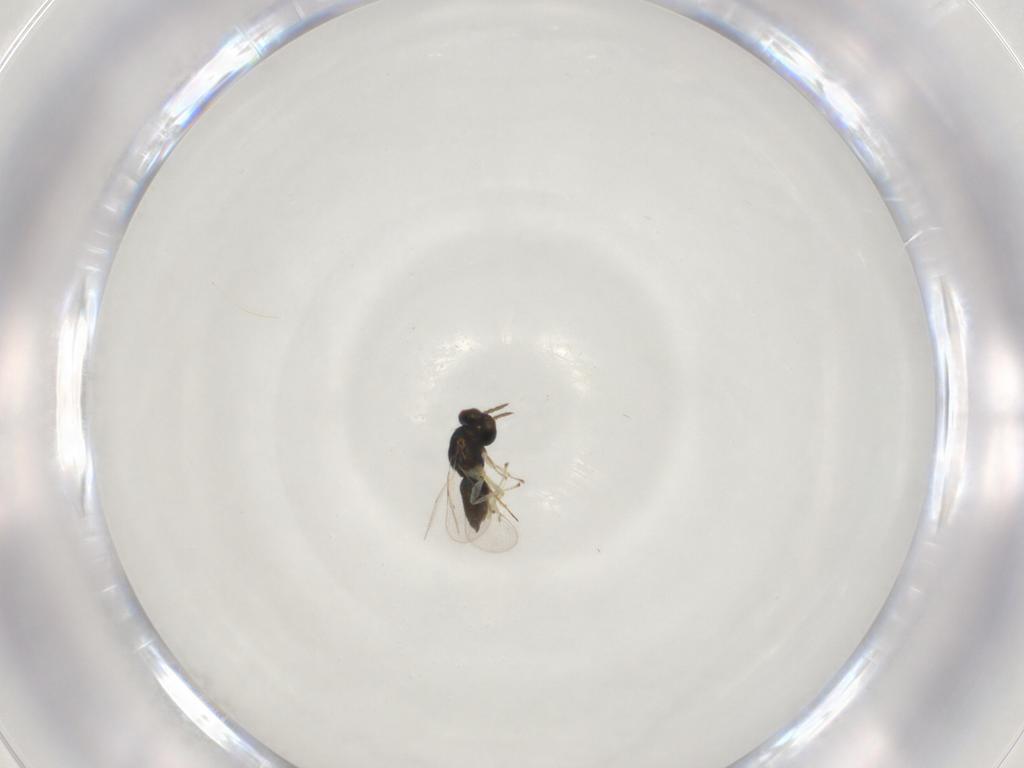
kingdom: Animalia
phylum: Arthropoda
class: Insecta
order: Hymenoptera
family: Eulophidae
